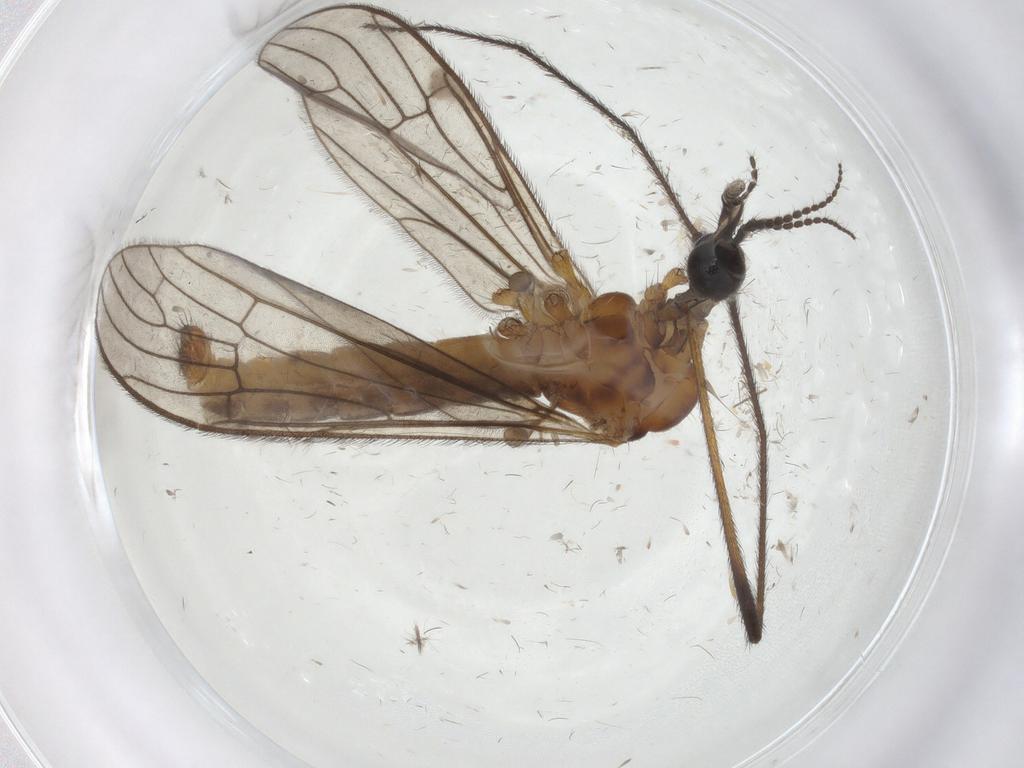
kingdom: Animalia
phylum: Arthropoda
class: Insecta
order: Diptera
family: Limoniidae
